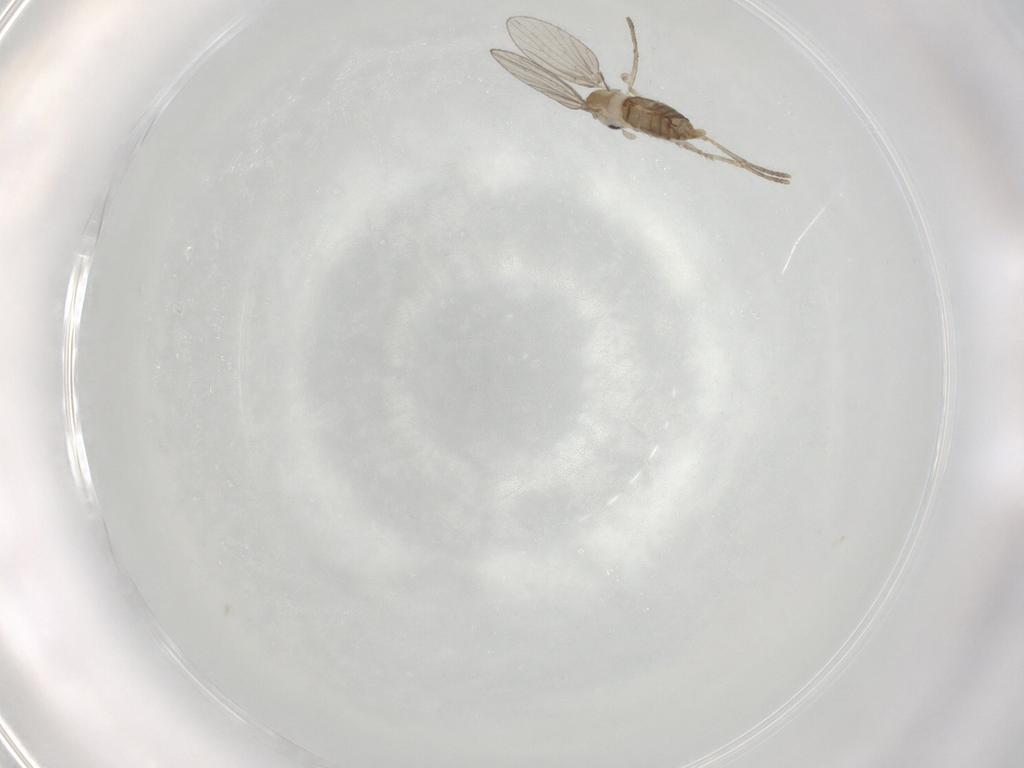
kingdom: Animalia
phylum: Arthropoda
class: Insecta
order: Diptera
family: Psychodidae
